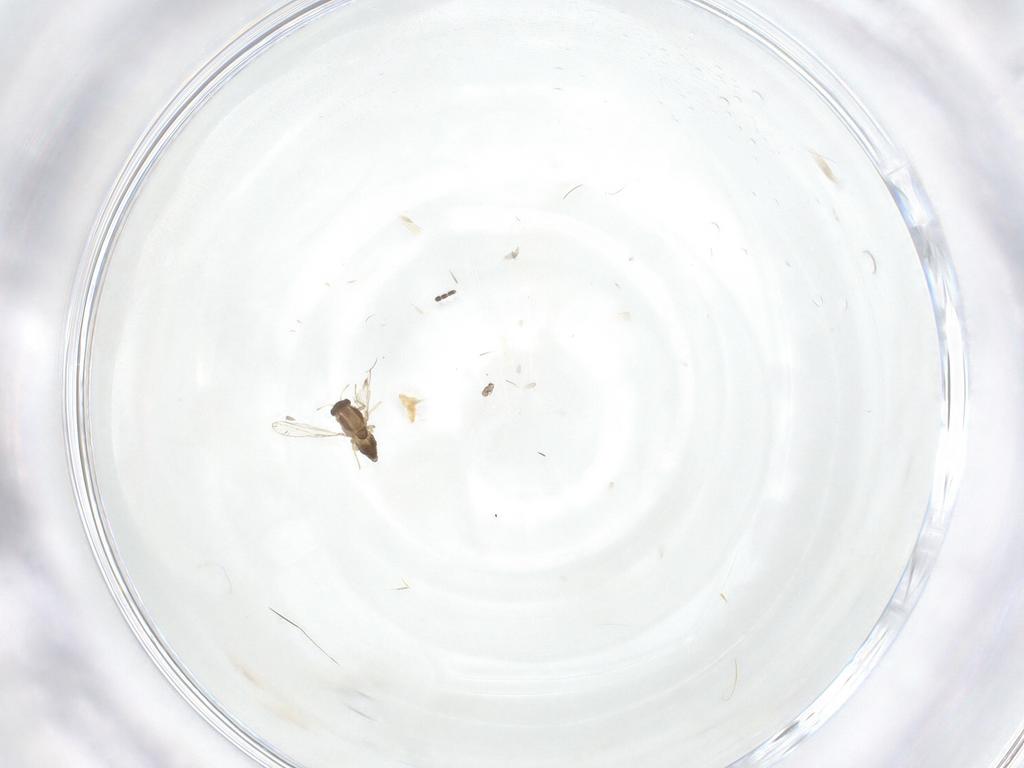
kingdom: Animalia
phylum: Arthropoda
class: Insecta
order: Diptera
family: Chironomidae
